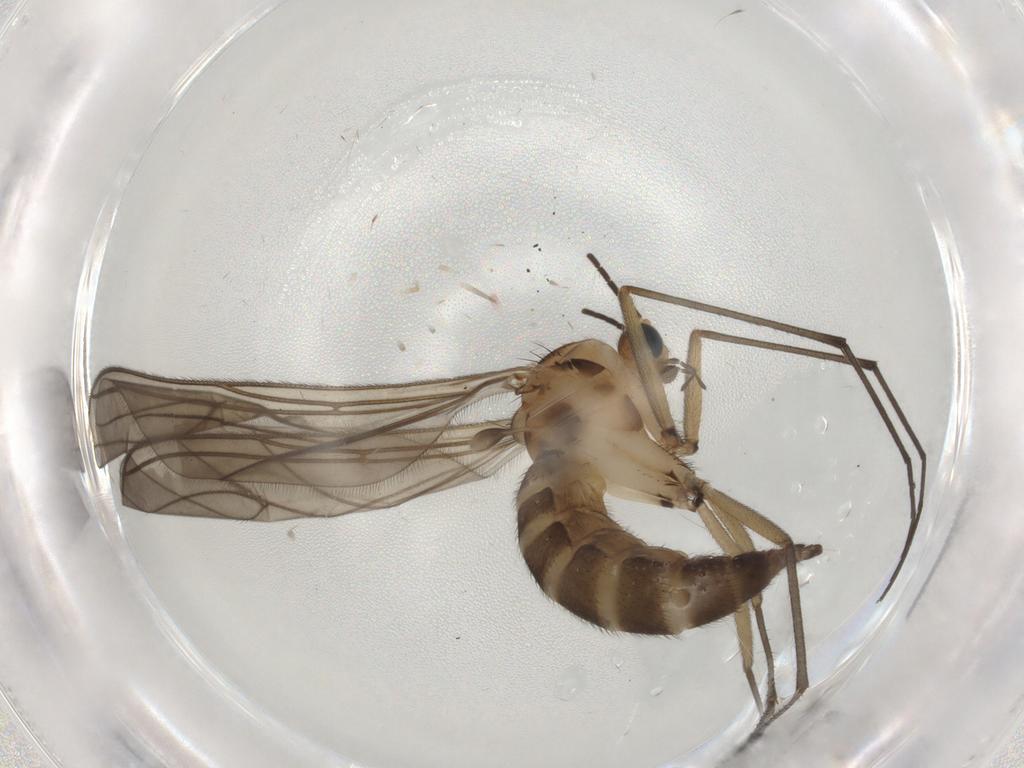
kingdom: Animalia
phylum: Arthropoda
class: Insecta
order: Diptera
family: Sciaridae
